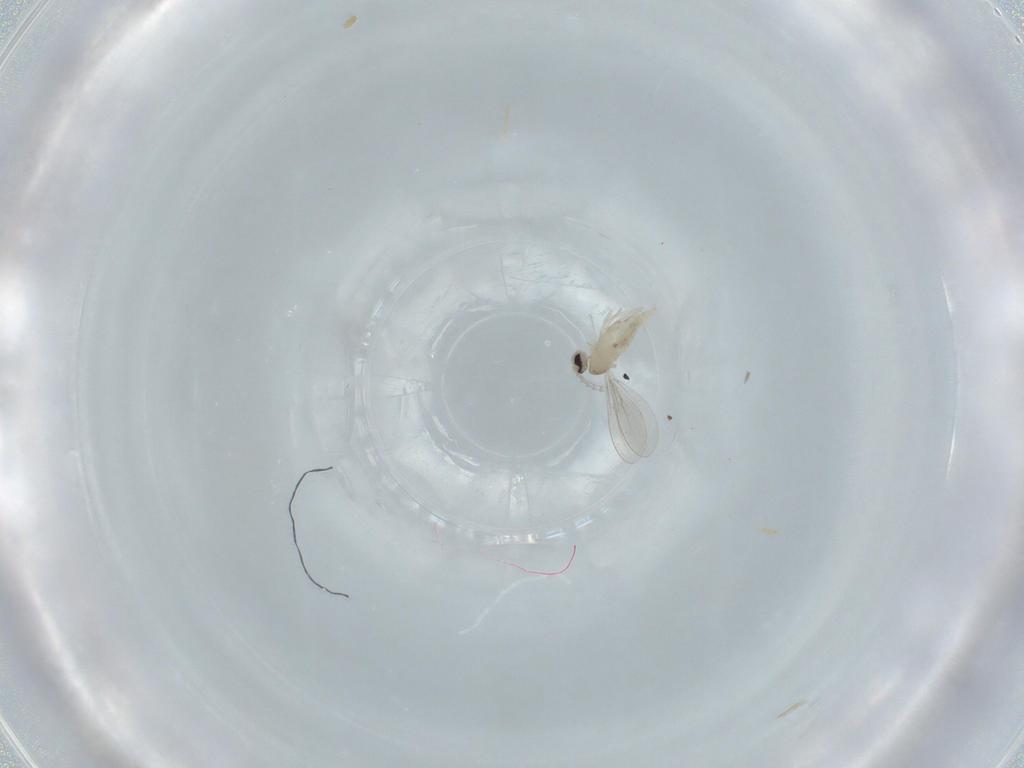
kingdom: Animalia
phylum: Arthropoda
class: Insecta
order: Diptera
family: Cecidomyiidae
